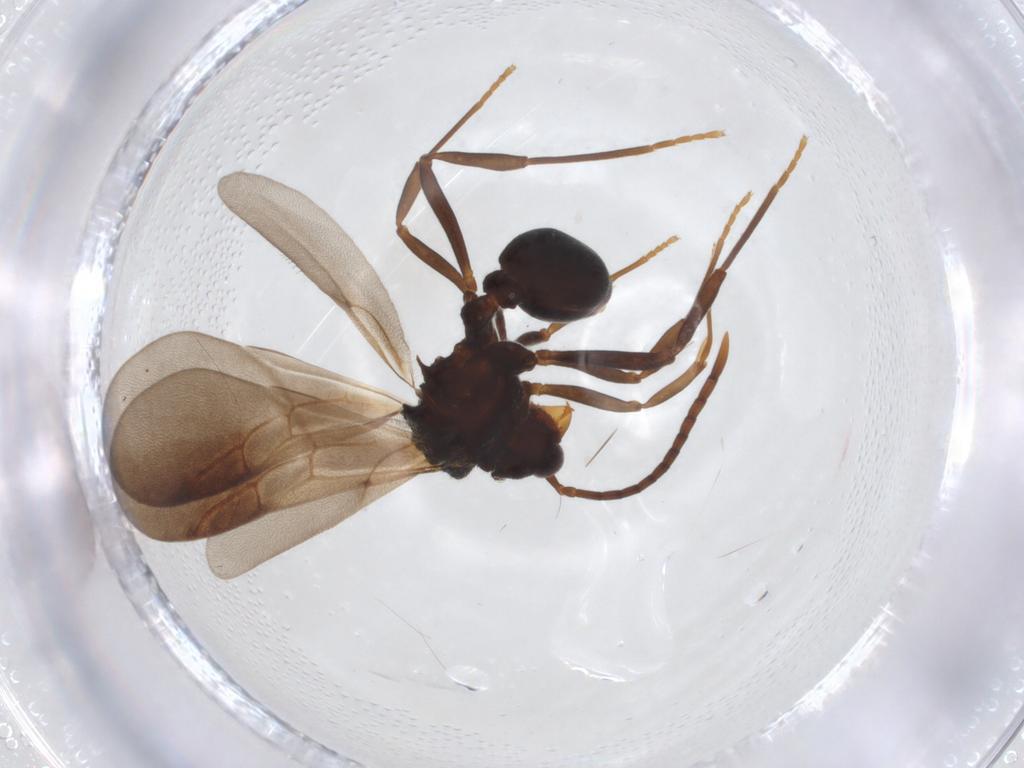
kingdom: Animalia
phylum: Arthropoda
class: Insecta
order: Hymenoptera
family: Formicidae
